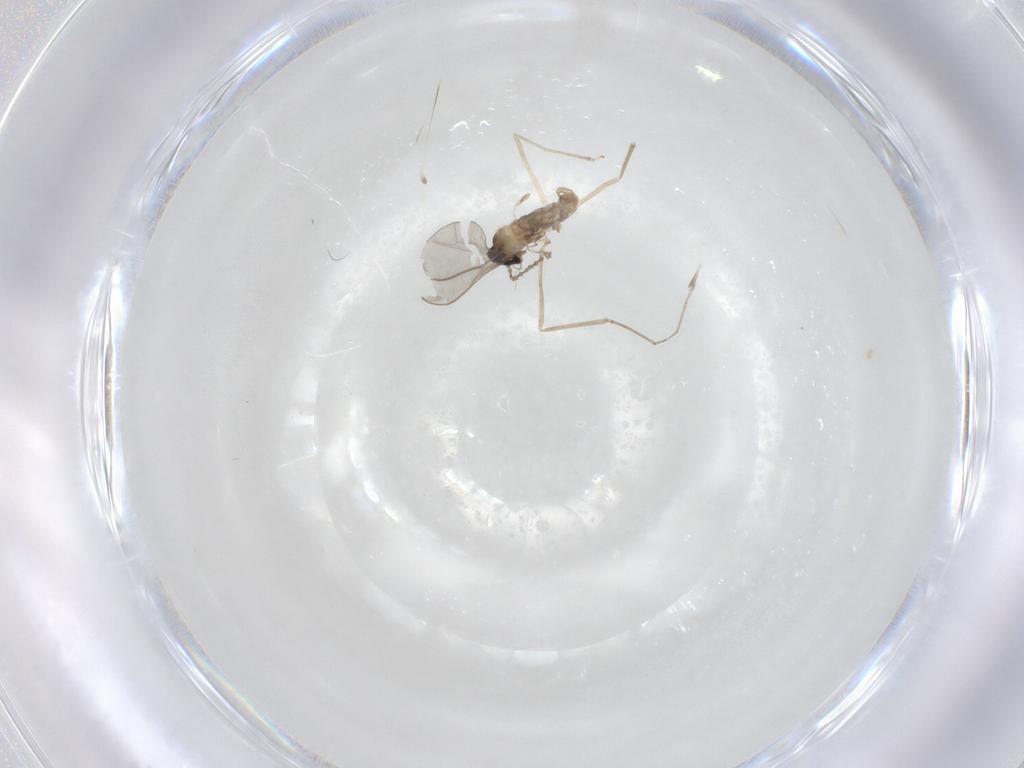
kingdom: Animalia
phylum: Arthropoda
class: Insecta
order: Diptera
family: Cecidomyiidae
